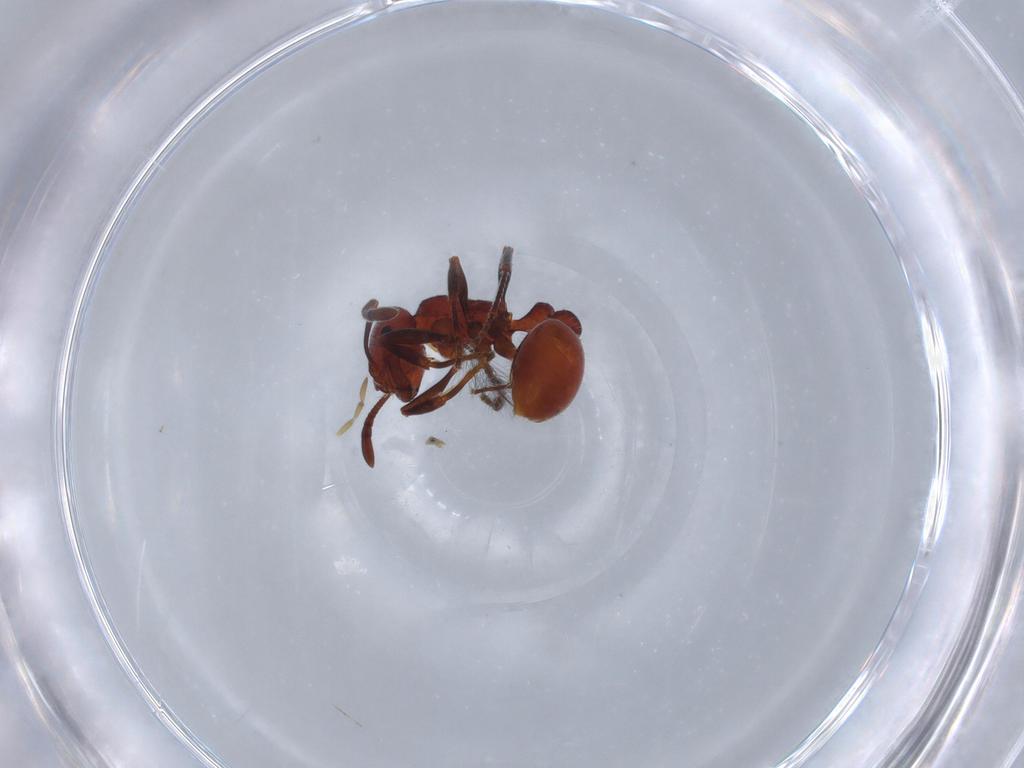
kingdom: Animalia
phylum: Arthropoda
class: Insecta
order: Hymenoptera
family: Formicidae
